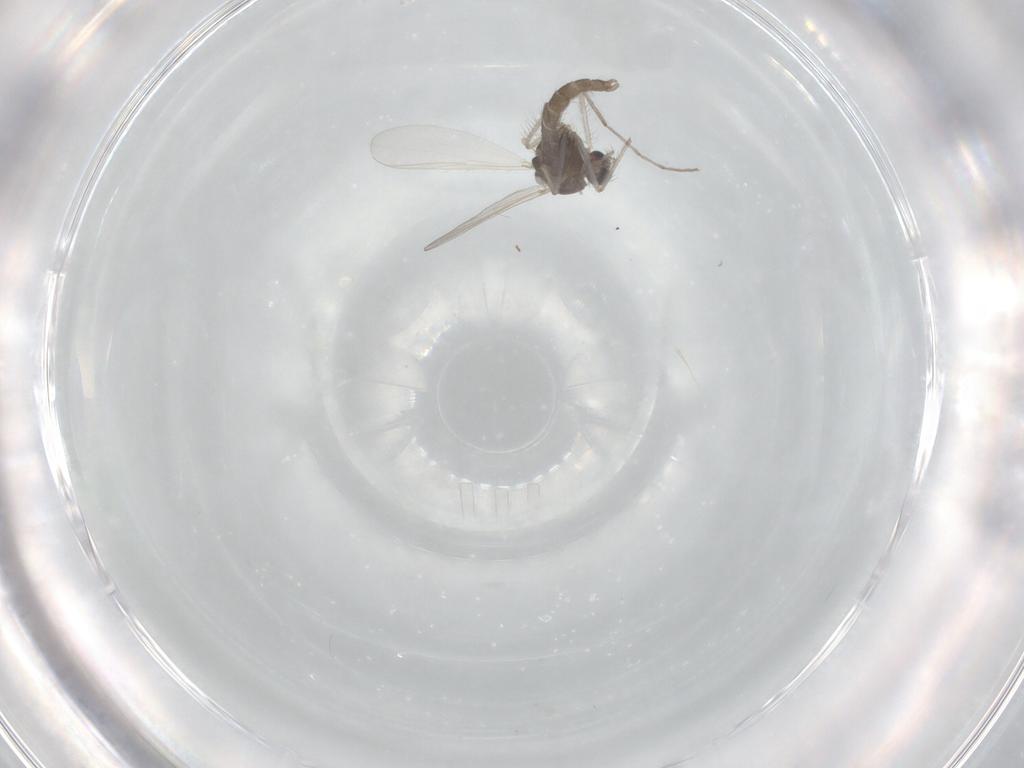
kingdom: Animalia
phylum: Arthropoda
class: Insecta
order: Diptera
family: Chironomidae
